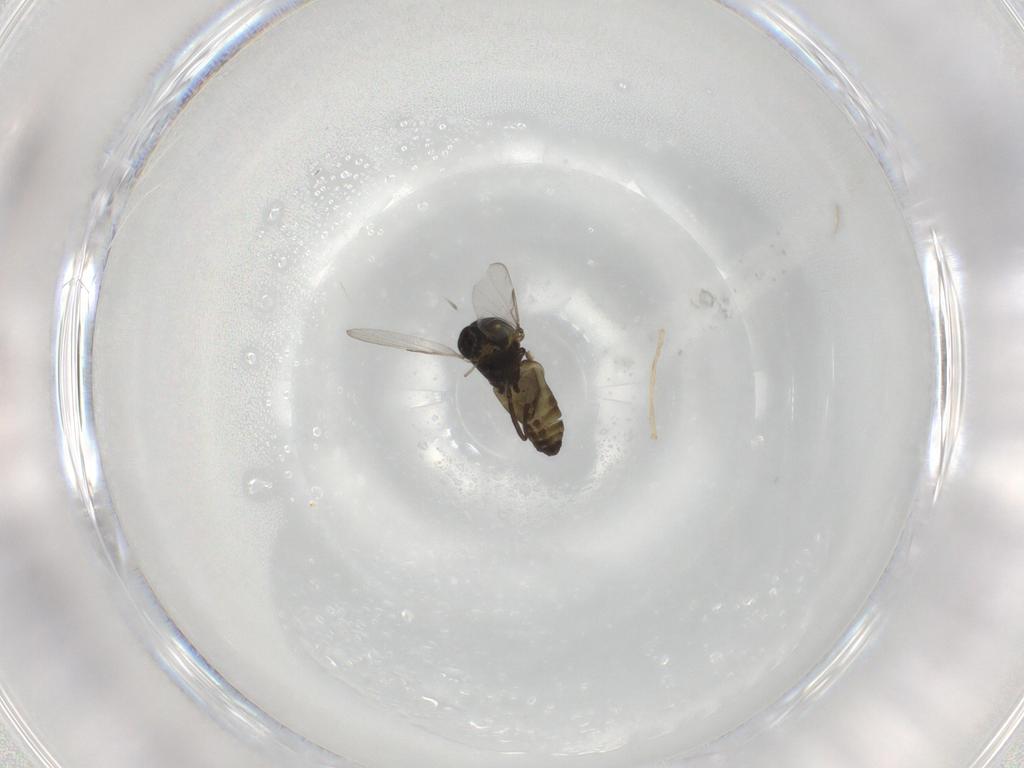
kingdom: Animalia
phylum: Arthropoda
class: Insecta
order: Diptera
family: Ceratopogonidae
